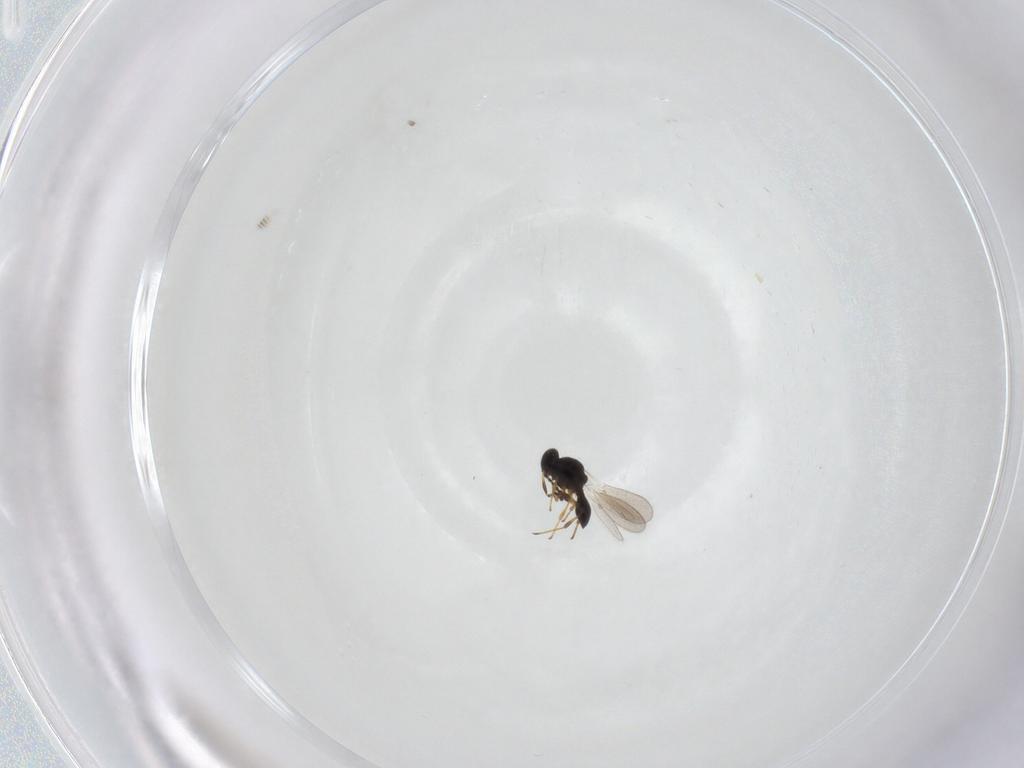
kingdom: Animalia
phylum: Arthropoda
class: Insecta
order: Hymenoptera
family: Platygastridae
